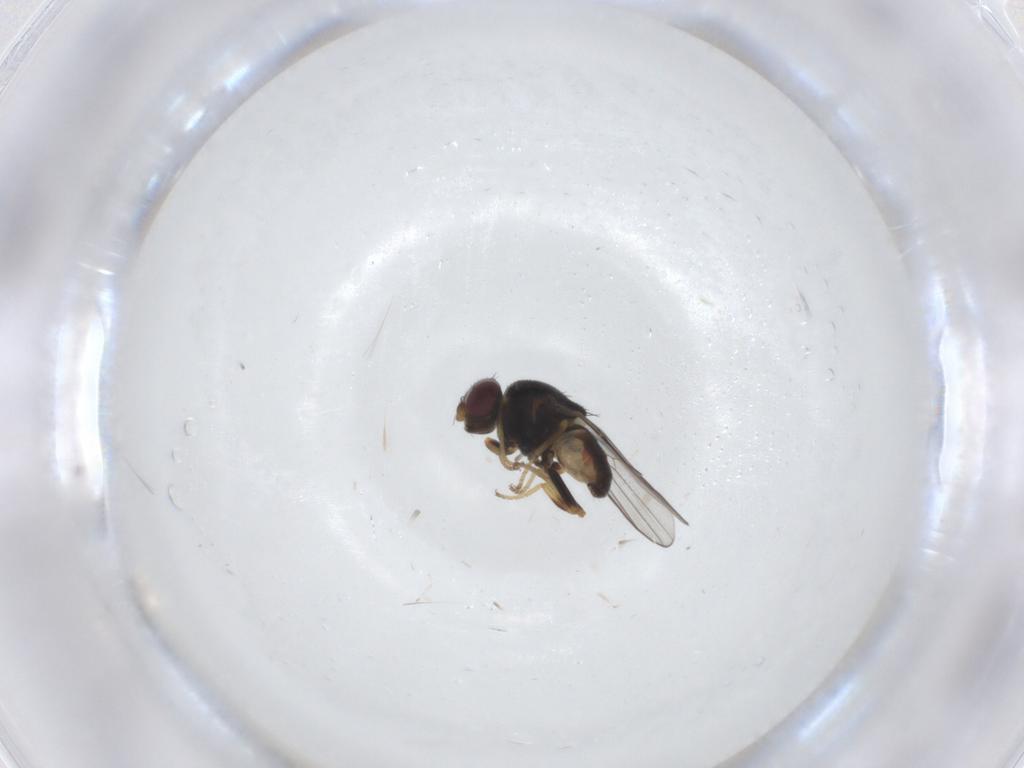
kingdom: Animalia
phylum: Arthropoda
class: Insecta
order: Diptera
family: Chloropidae
